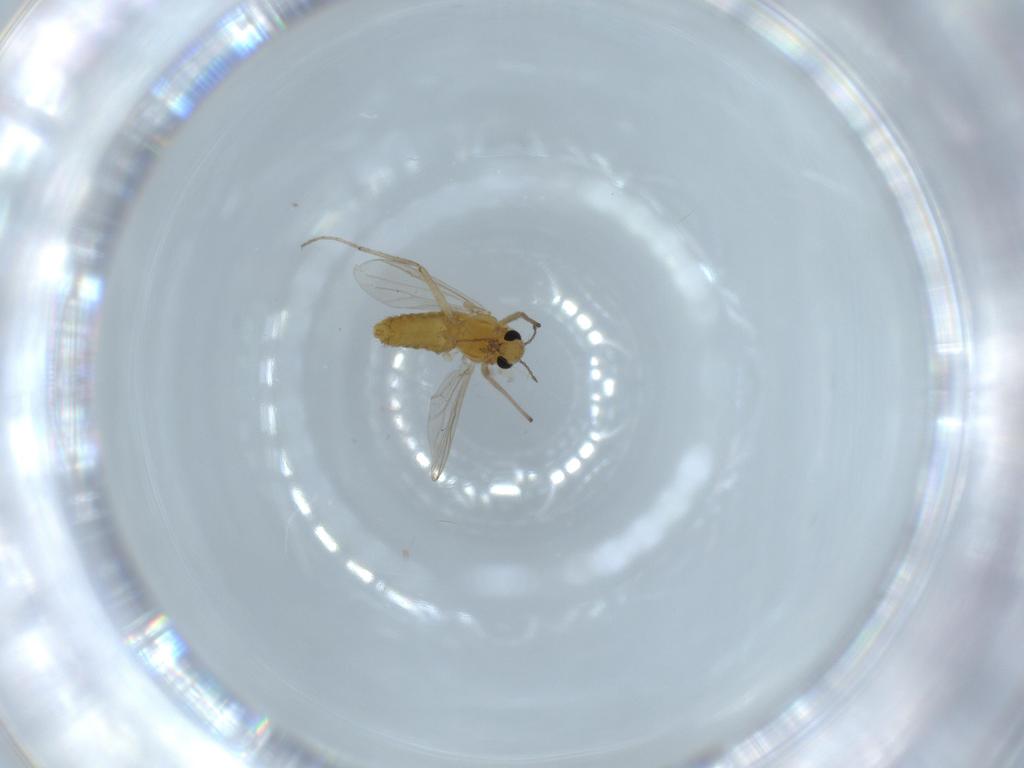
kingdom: Animalia
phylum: Arthropoda
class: Insecta
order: Diptera
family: Chironomidae
